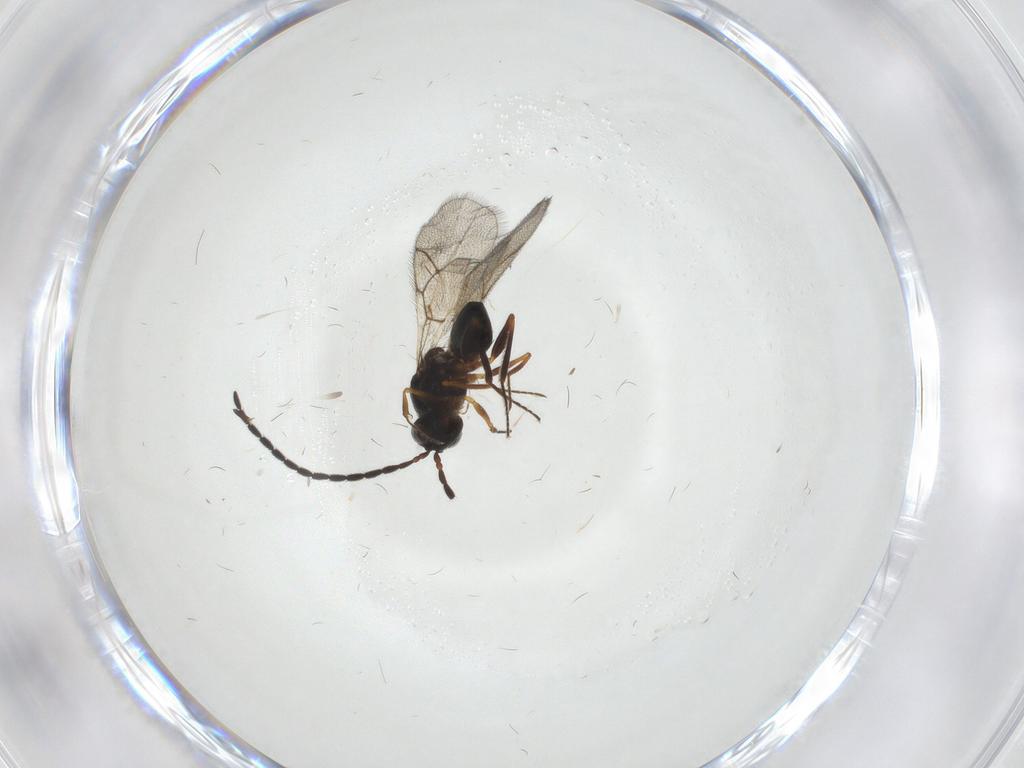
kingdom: Animalia
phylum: Arthropoda
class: Insecta
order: Hymenoptera
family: Figitidae
